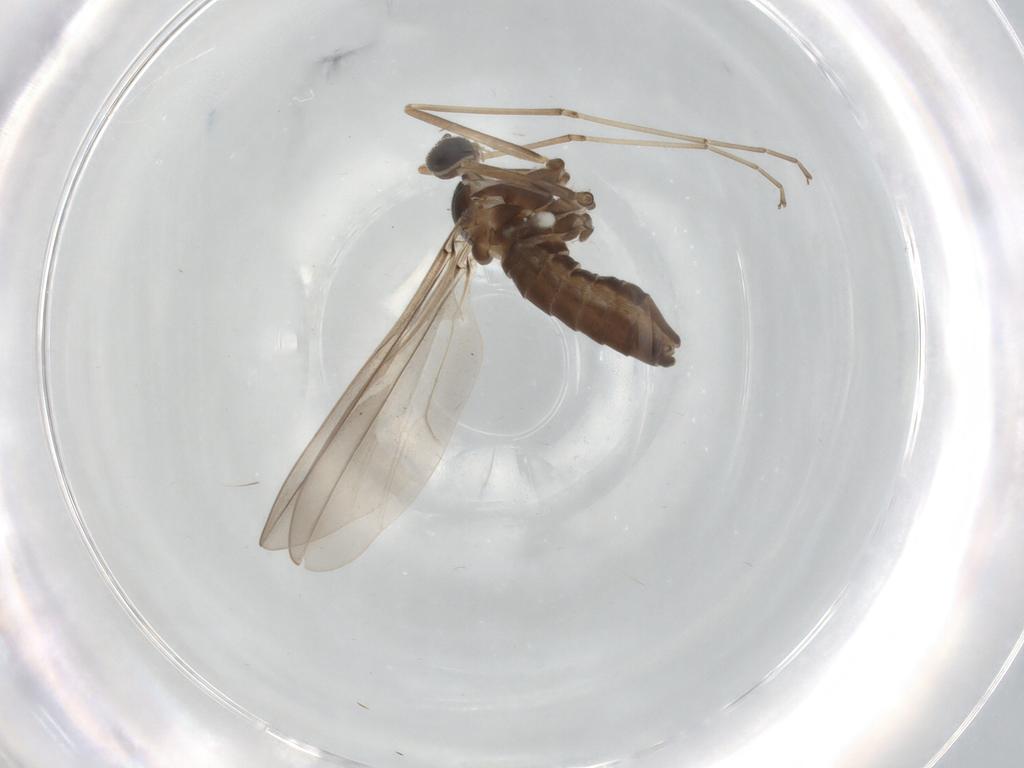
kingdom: Animalia
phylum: Arthropoda
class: Insecta
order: Diptera
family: Cecidomyiidae
